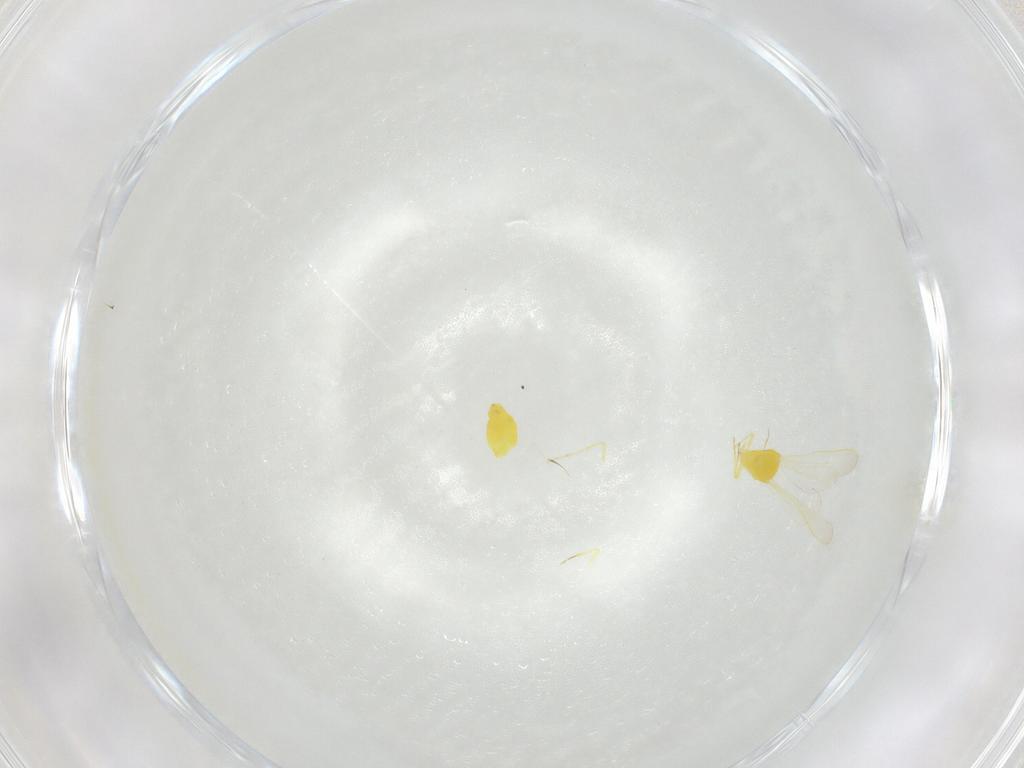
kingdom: Animalia
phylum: Arthropoda
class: Insecta
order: Hemiptera
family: Aleyrodidae
